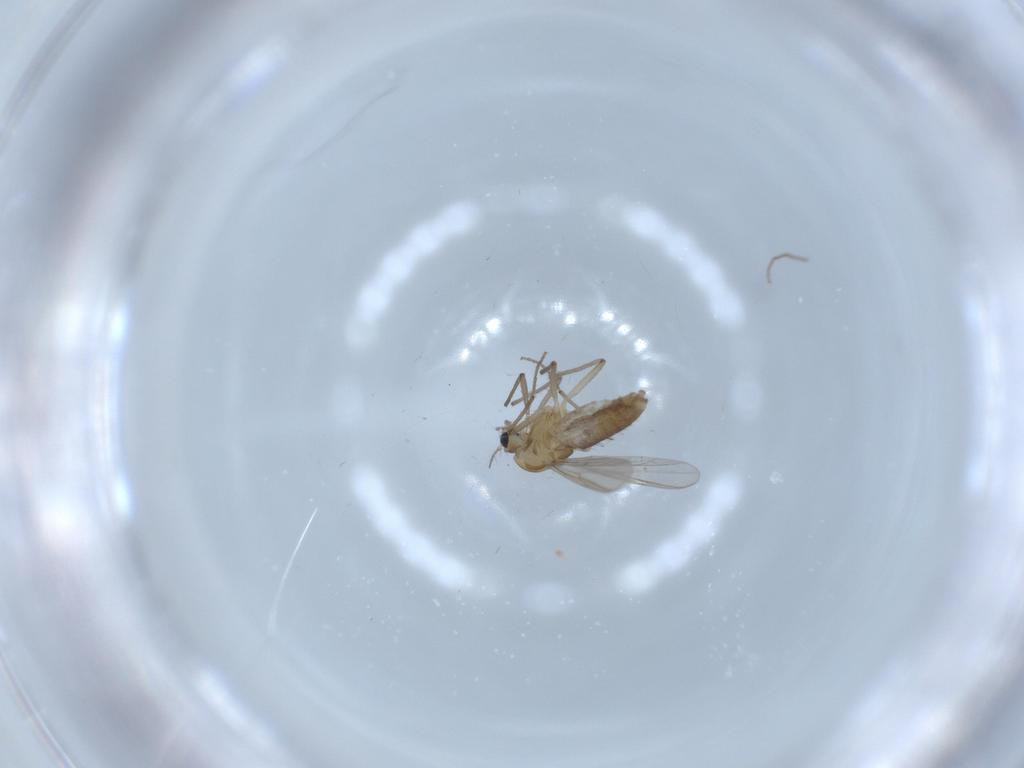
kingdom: Animalia
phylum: Arthropoda
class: Insecta
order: Diptera
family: Chironomidae
